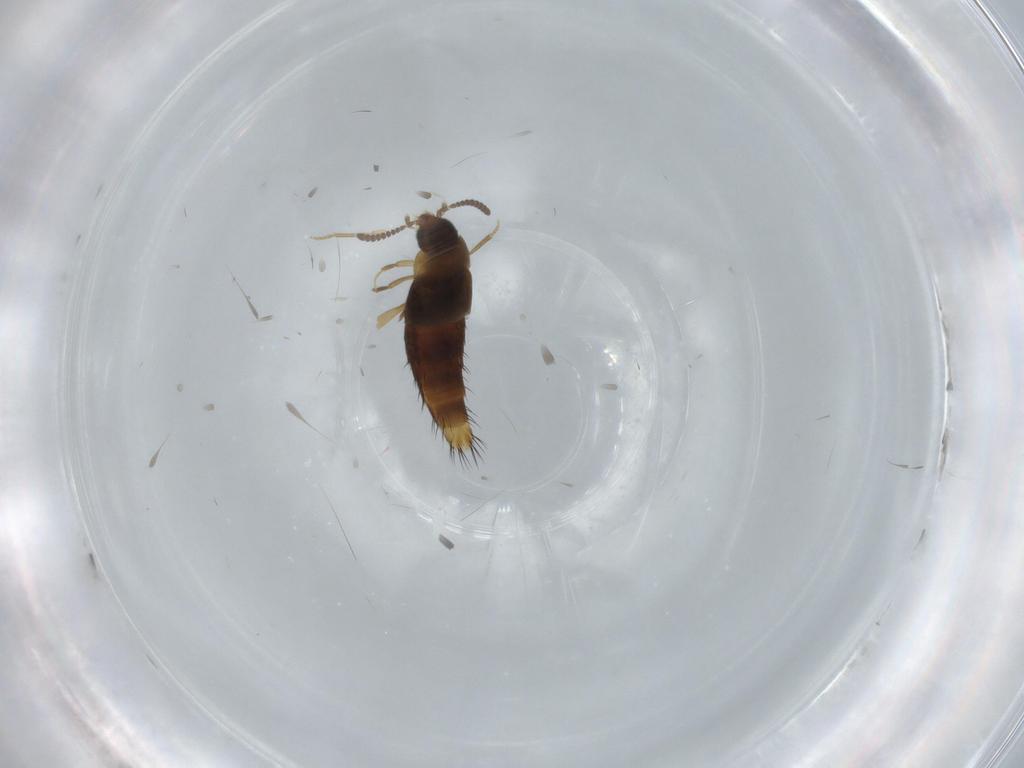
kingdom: Animalia
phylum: Arthropoda
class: Insecta
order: Coleoptera
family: Staphylinidae
